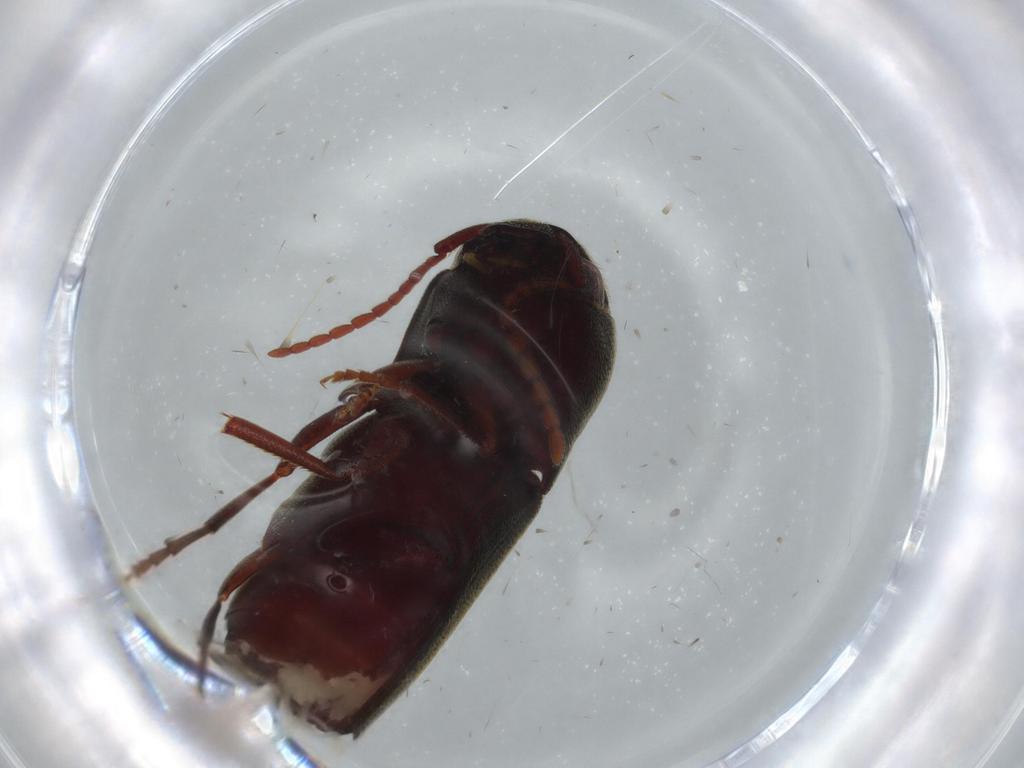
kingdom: Animalia
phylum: Arthropoda
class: Insecta
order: Coleoptera
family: Eucnemidae
